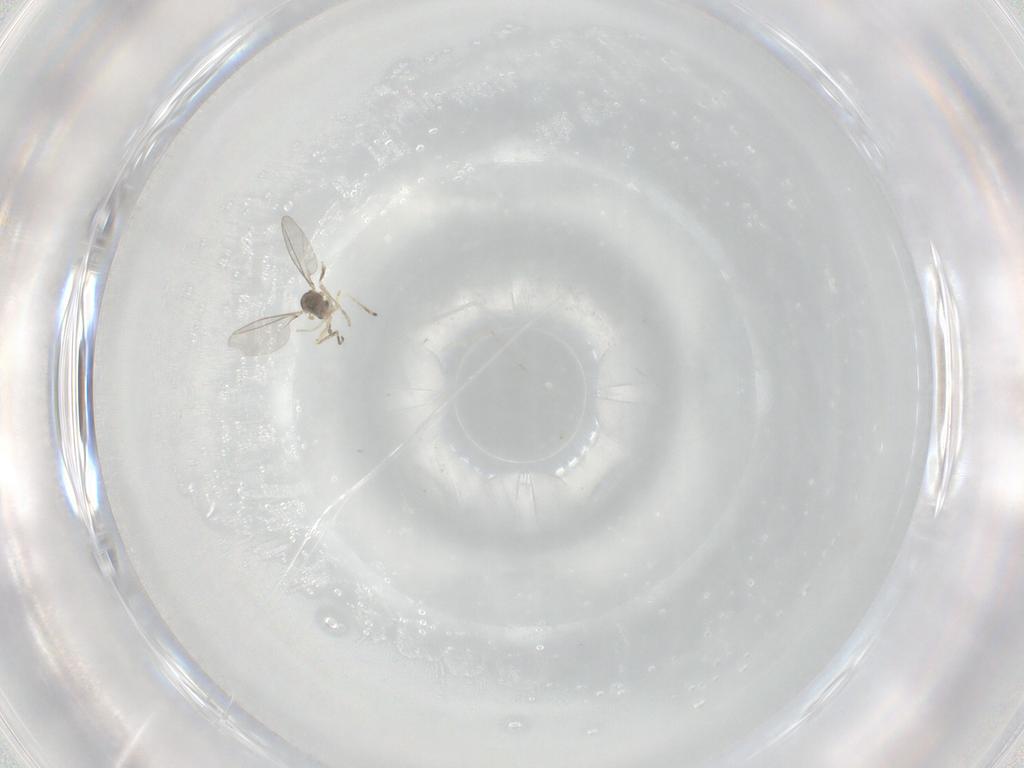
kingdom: Animalia
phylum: Arthropoda
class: Insecta
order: Diptera
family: Cecidomyiidae
